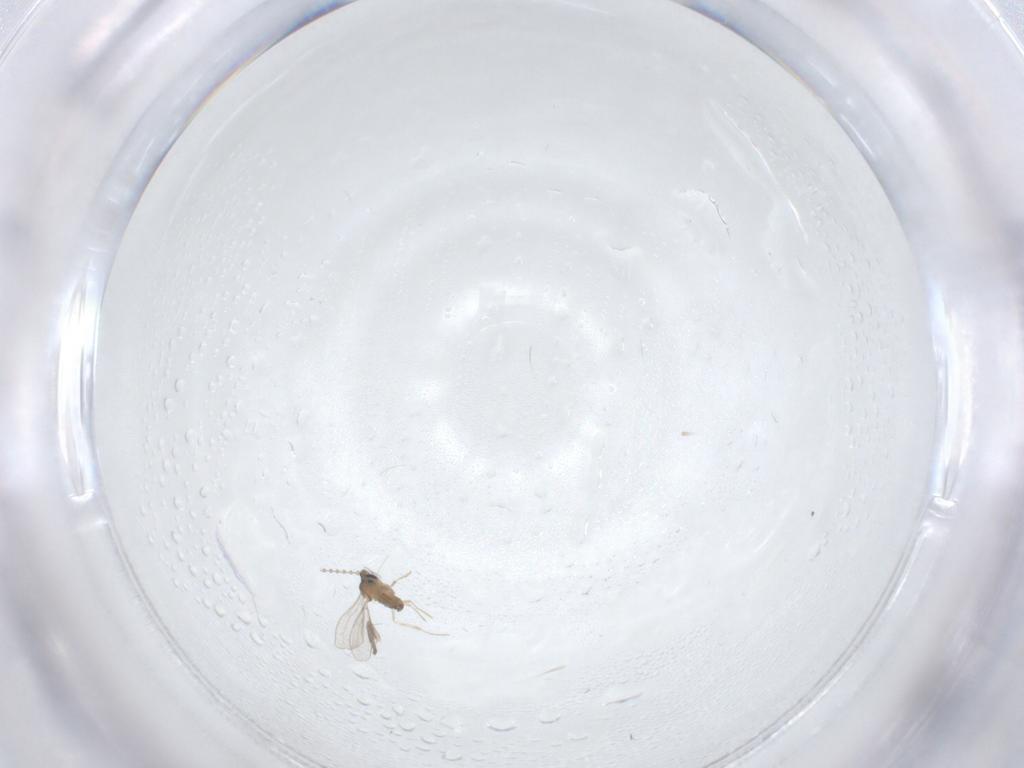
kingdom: Animalia
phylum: Arthropoda
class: Insecta
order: Diptera
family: Cecidomyiidae
